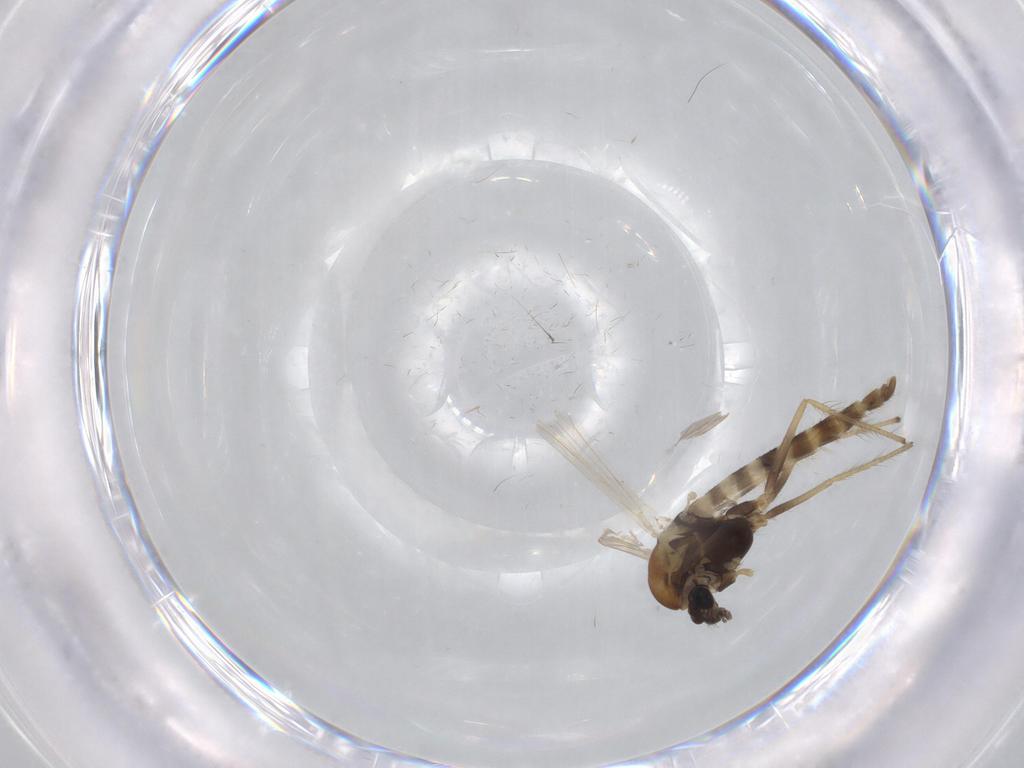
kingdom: Animalia
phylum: Arthropoda
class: Insecta
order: Diptera
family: Chironomidae
